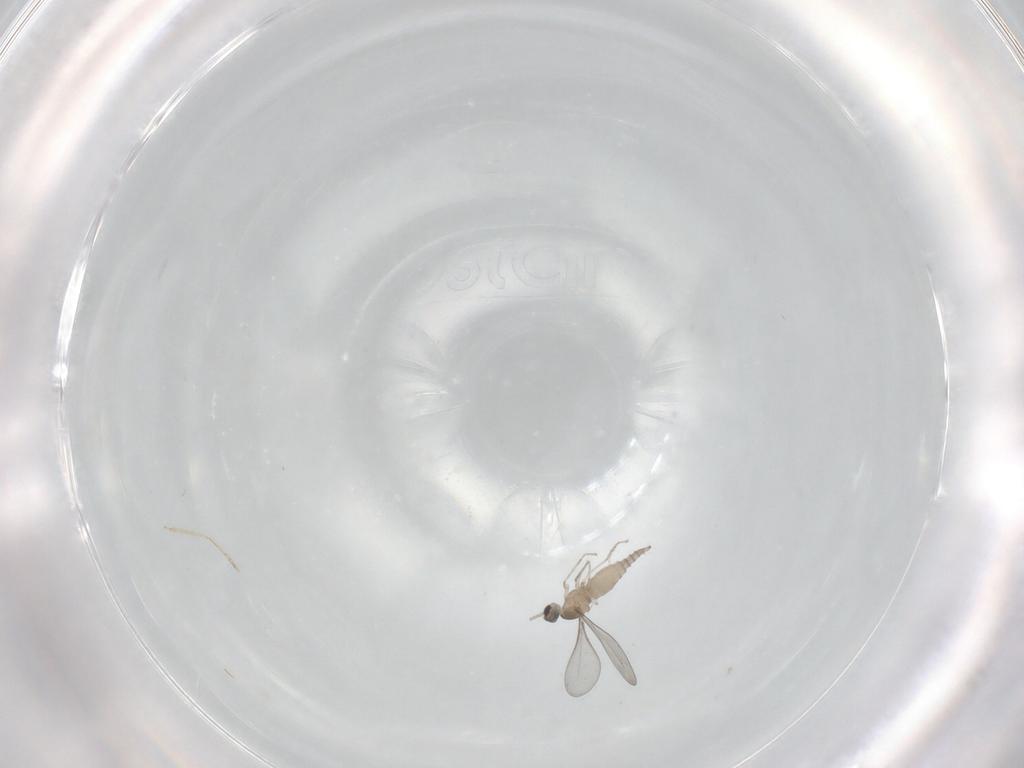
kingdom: Animalia
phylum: Arthropoda
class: Insecta
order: Diptera
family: Cecidomyiidae
